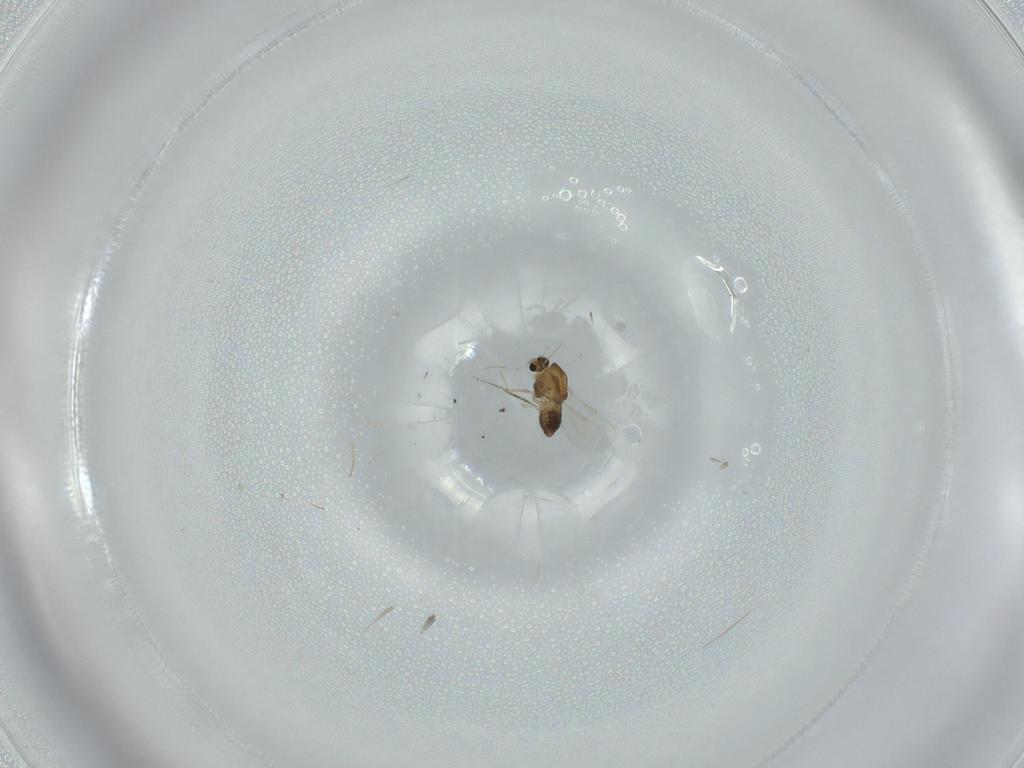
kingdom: Animalia
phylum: Arthropoda
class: Insecta
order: Diptera
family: Chironomidae
